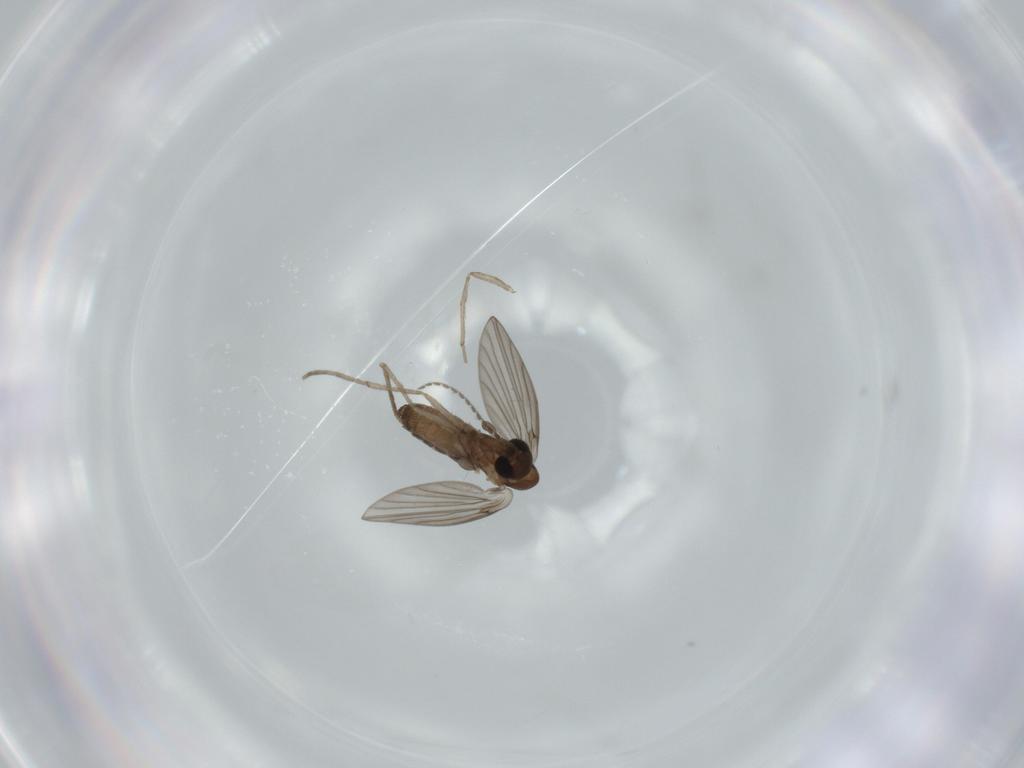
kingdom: Animalia
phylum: Arthropoda
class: Insecta
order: Diptera
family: Psychodidae
